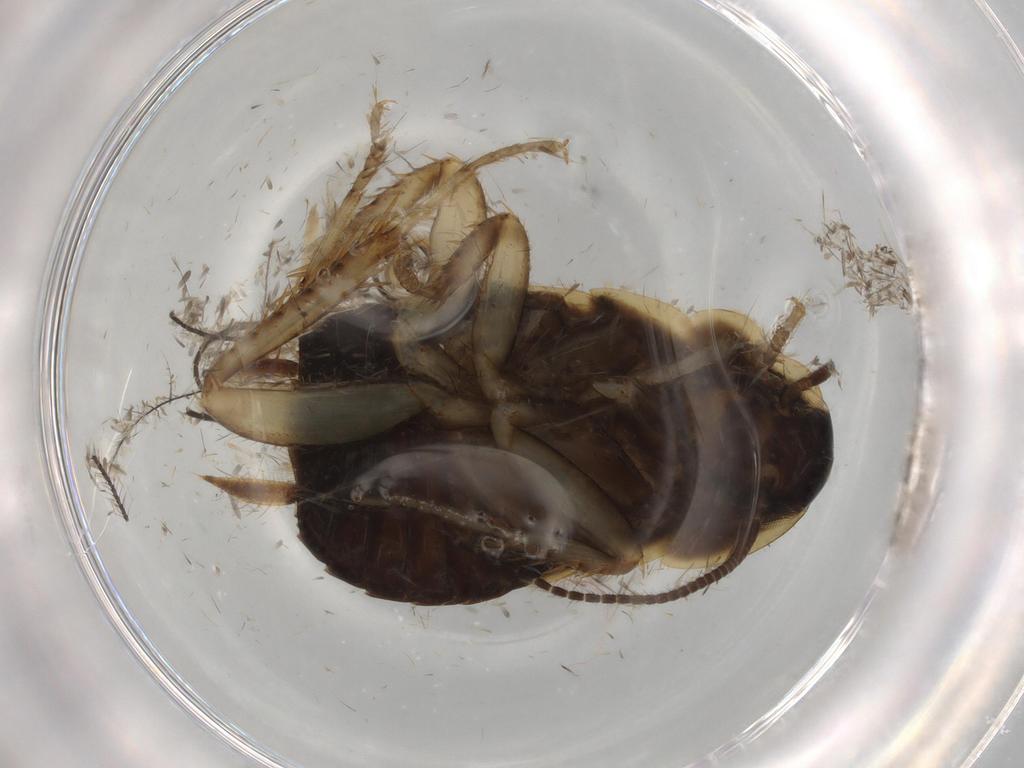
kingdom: Animalia
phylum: Arthropoda
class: Insecta
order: Blattodea
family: Ectobiidae
